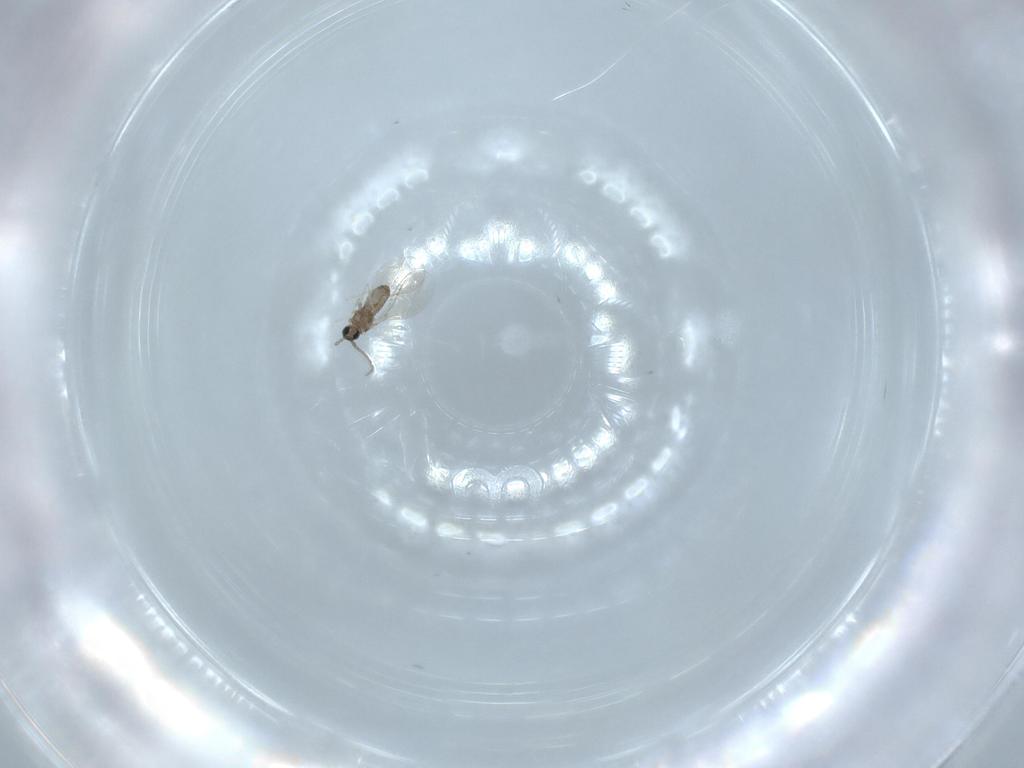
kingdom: Animalia
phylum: Arthropoda
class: Insecta
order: Diptera
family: Cecidomyiidae
